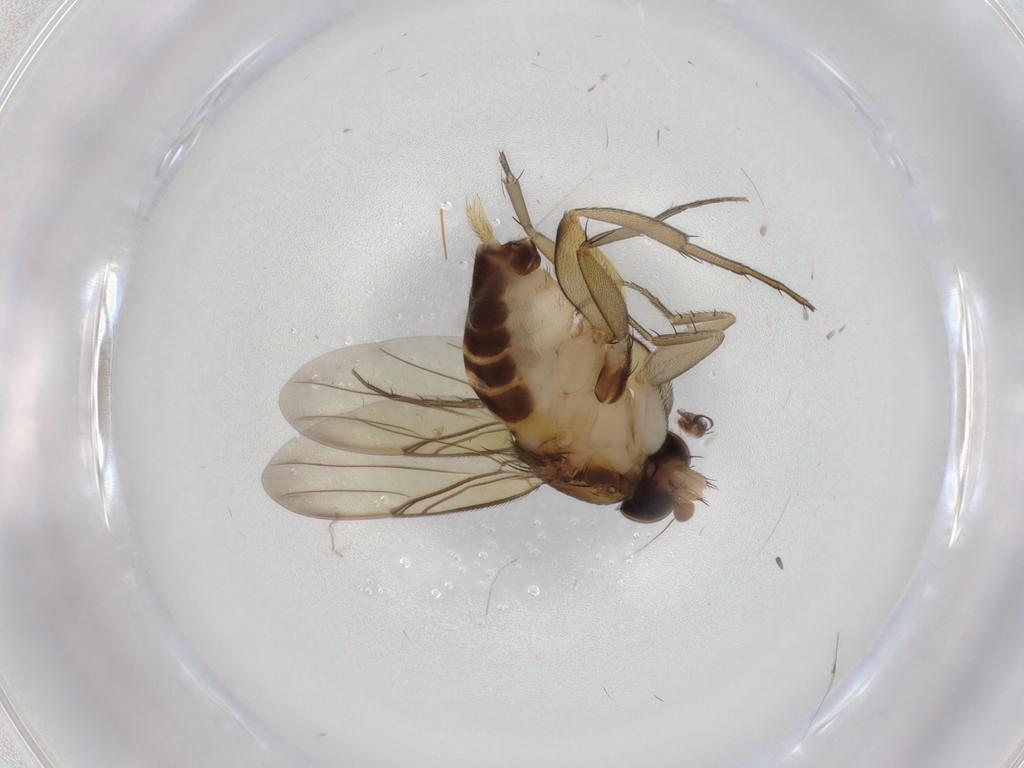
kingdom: Animalia
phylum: Arthropoda
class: Insecta
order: Diptera
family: Phoridae
